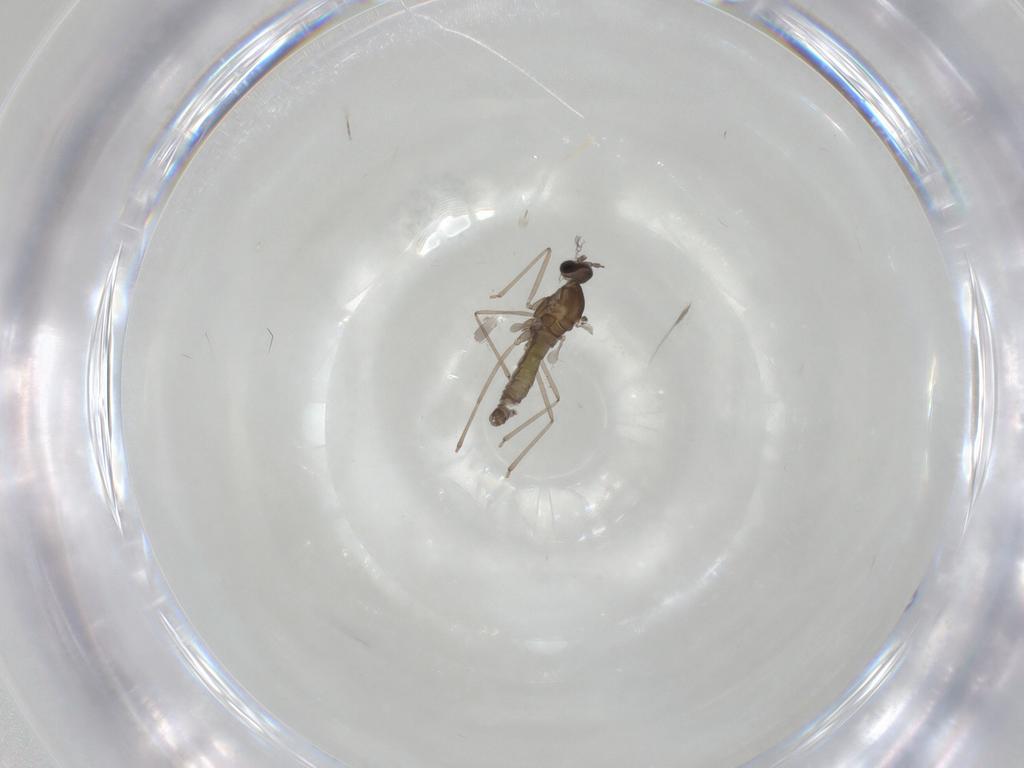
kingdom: Animalia
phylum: Arthropoda
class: Insecta
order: Diptera
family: Cecidomyiidae
